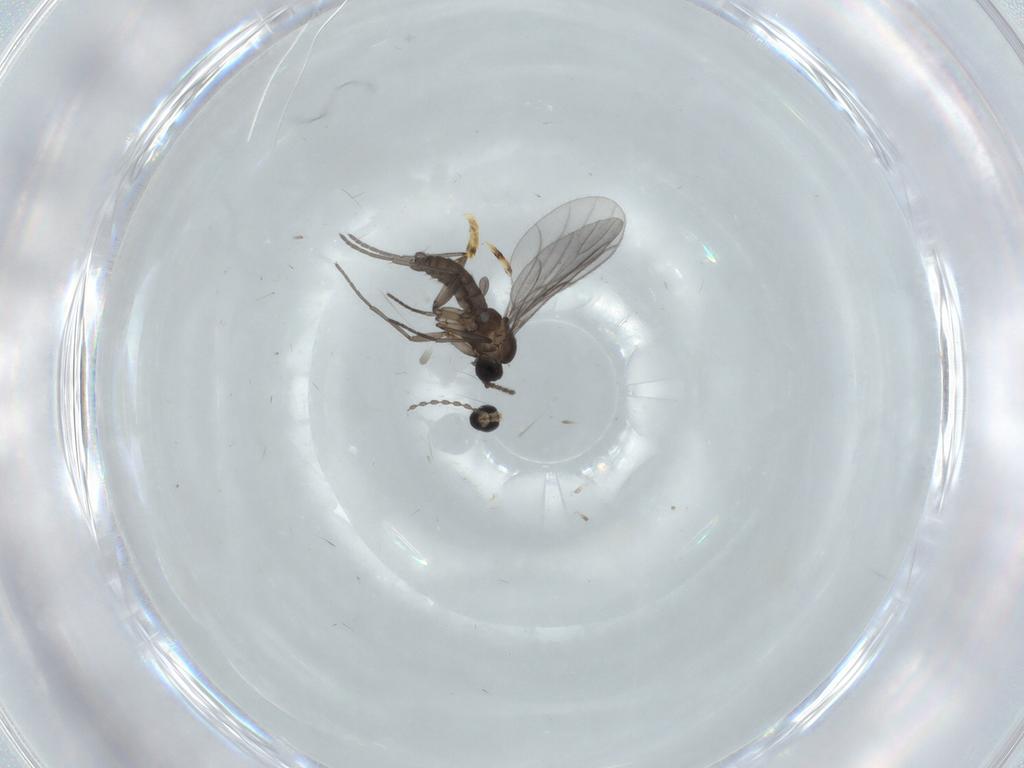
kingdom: Animalia
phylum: Arthropoda
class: Insecta
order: Diptera
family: Cecidomyiidae
